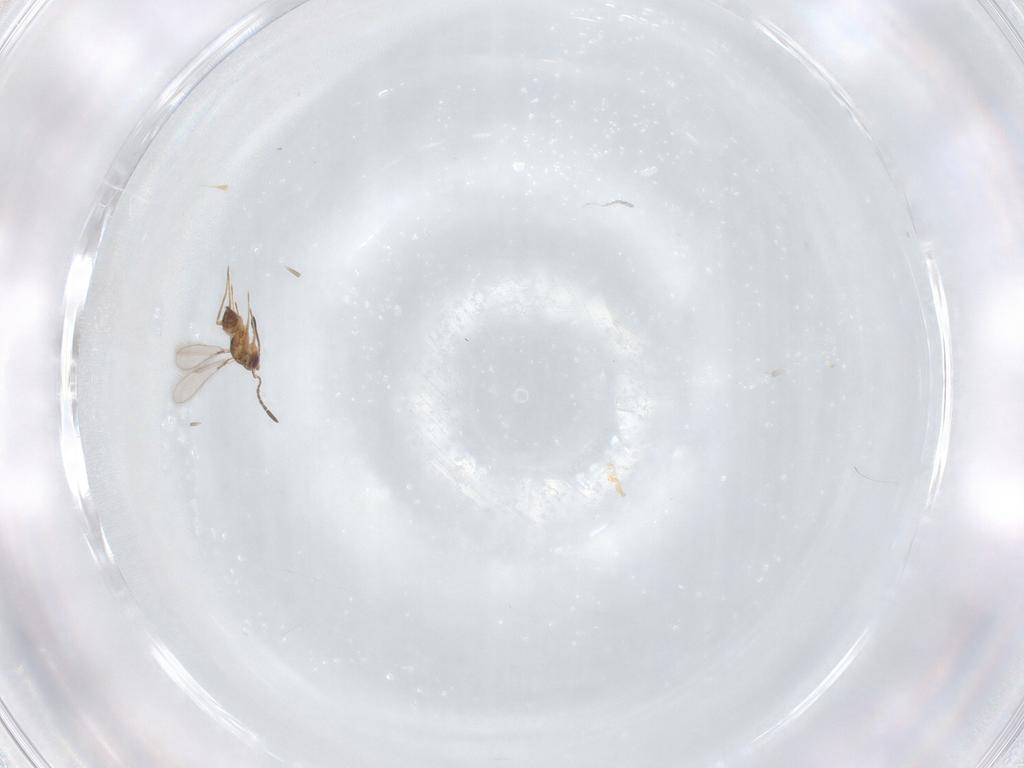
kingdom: Animalia
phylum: Arthropoda
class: Insecta
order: Hymenoptera
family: Mymaridae
